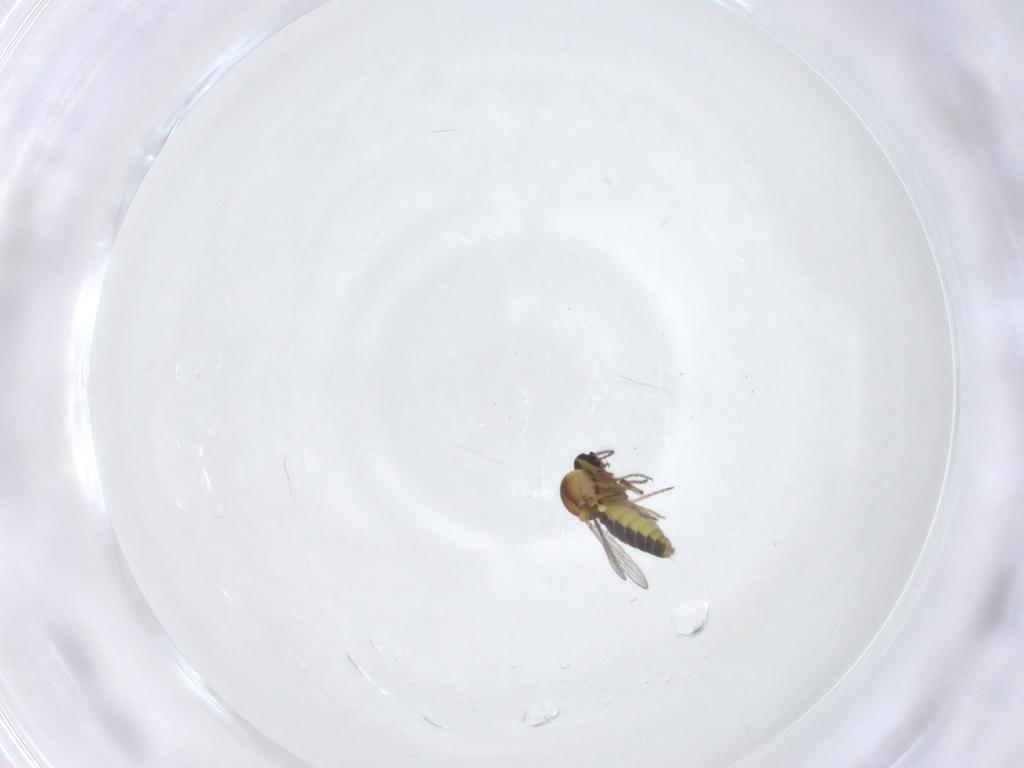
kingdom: Animalia
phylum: Arthropoda
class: Insecta
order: Diptera
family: Ceratopogonidae
